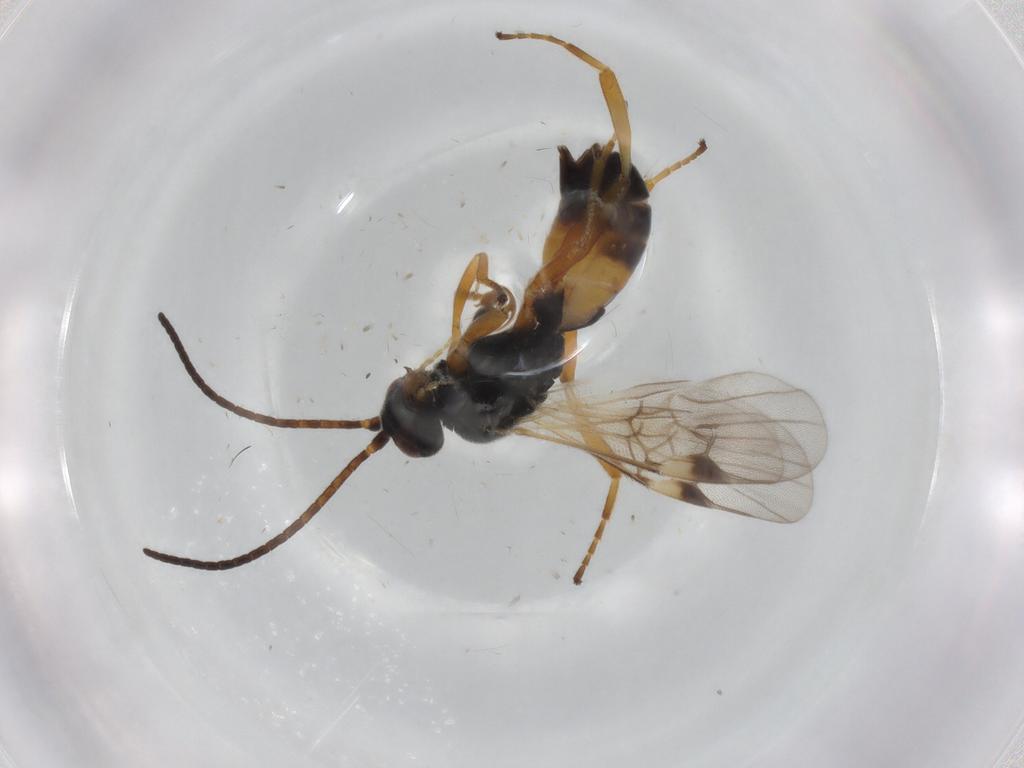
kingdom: Animalia
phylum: Arthropoda
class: Insecta
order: Hymenoptera
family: Braconidae
